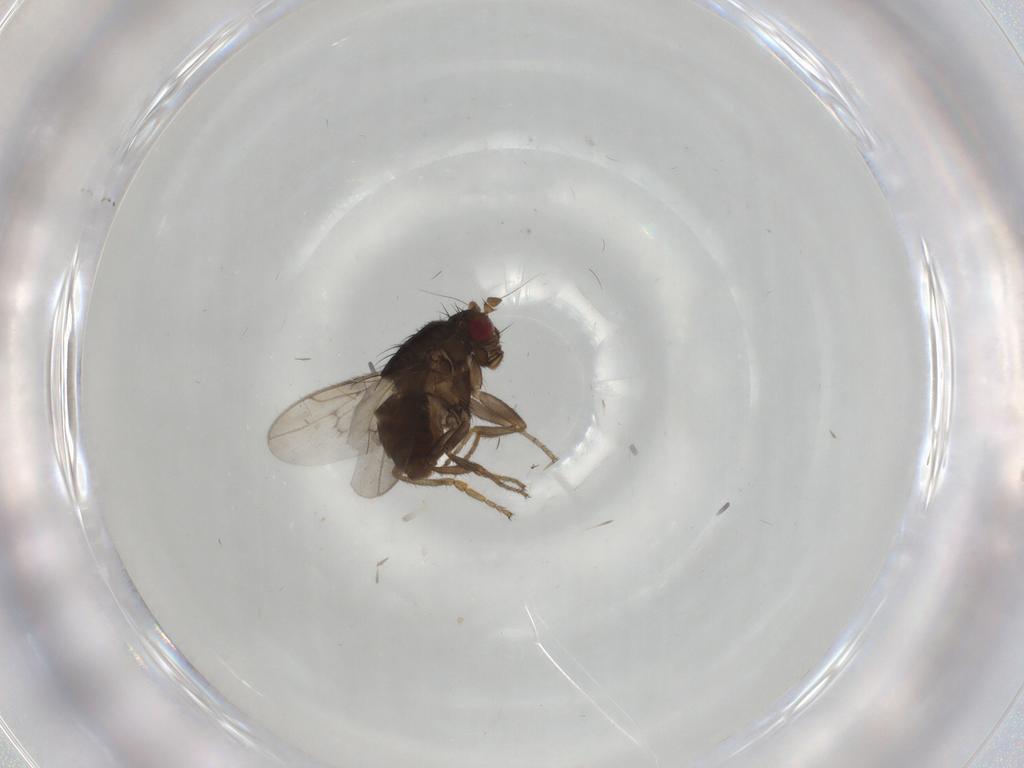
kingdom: Animalia
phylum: Arthropoda
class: Insecta
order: Diptera
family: Sphaeroceridae
